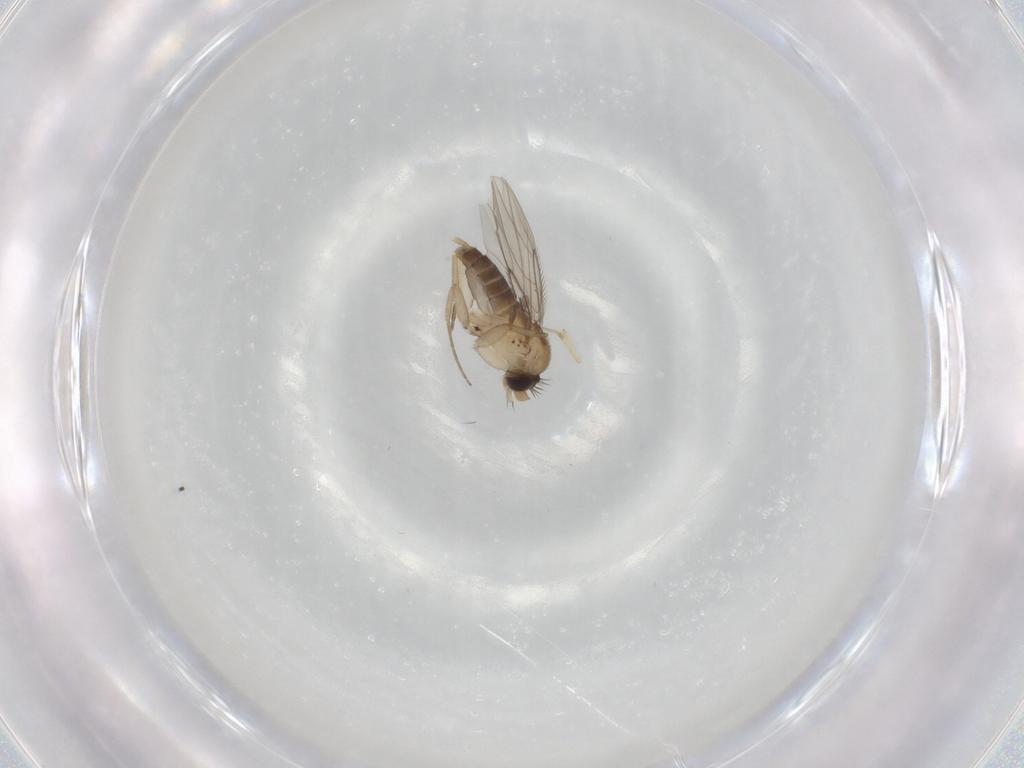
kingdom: Animalia
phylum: Arthropoda
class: Insecta
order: Diptera
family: Phoridae
